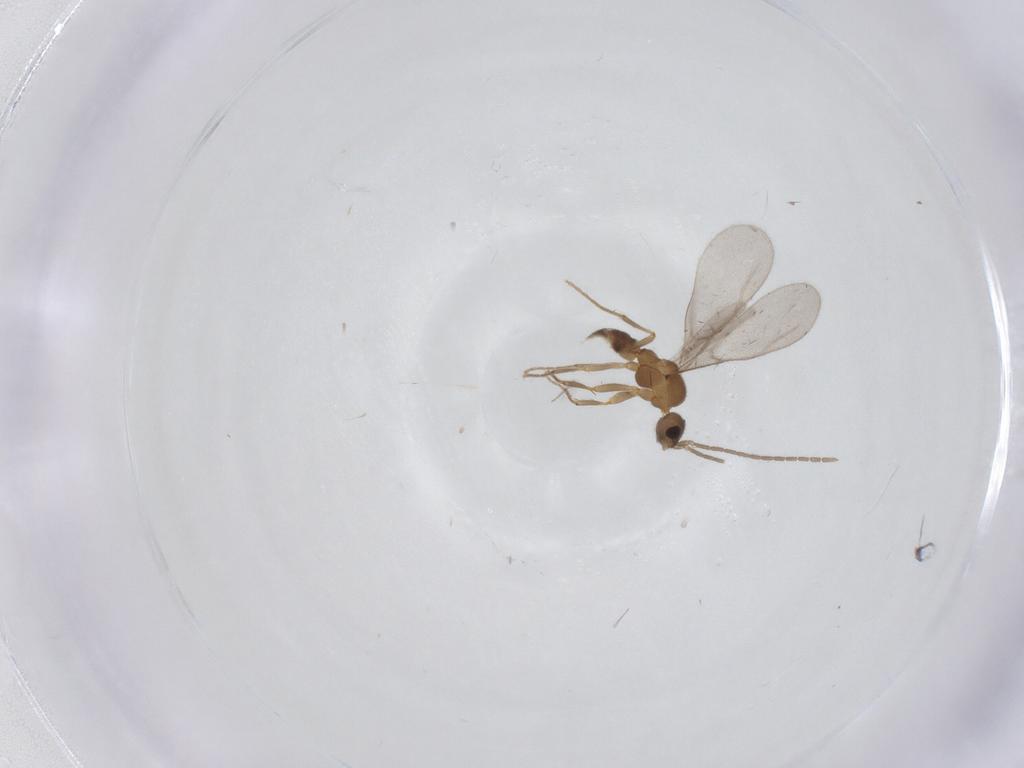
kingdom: Animalia
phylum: Arthropoda
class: Insecta
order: Hymenoptera
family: Formicidae
